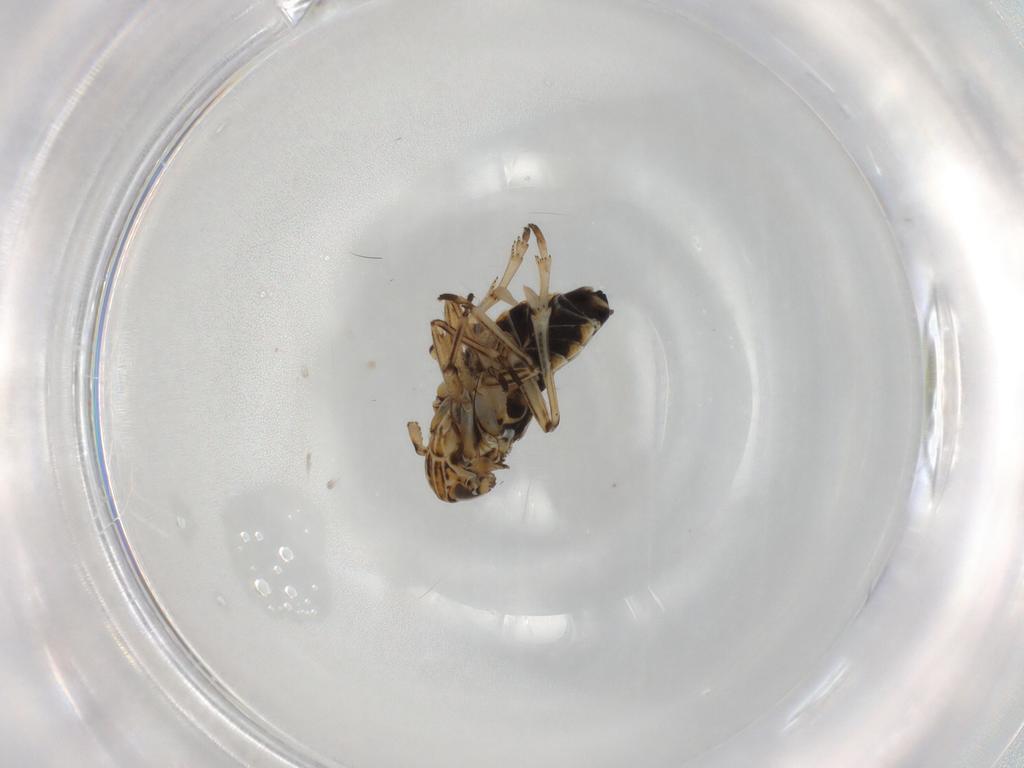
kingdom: Animalia
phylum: Arthropoda
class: Insecta
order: Hemiptera
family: Delphacidae
